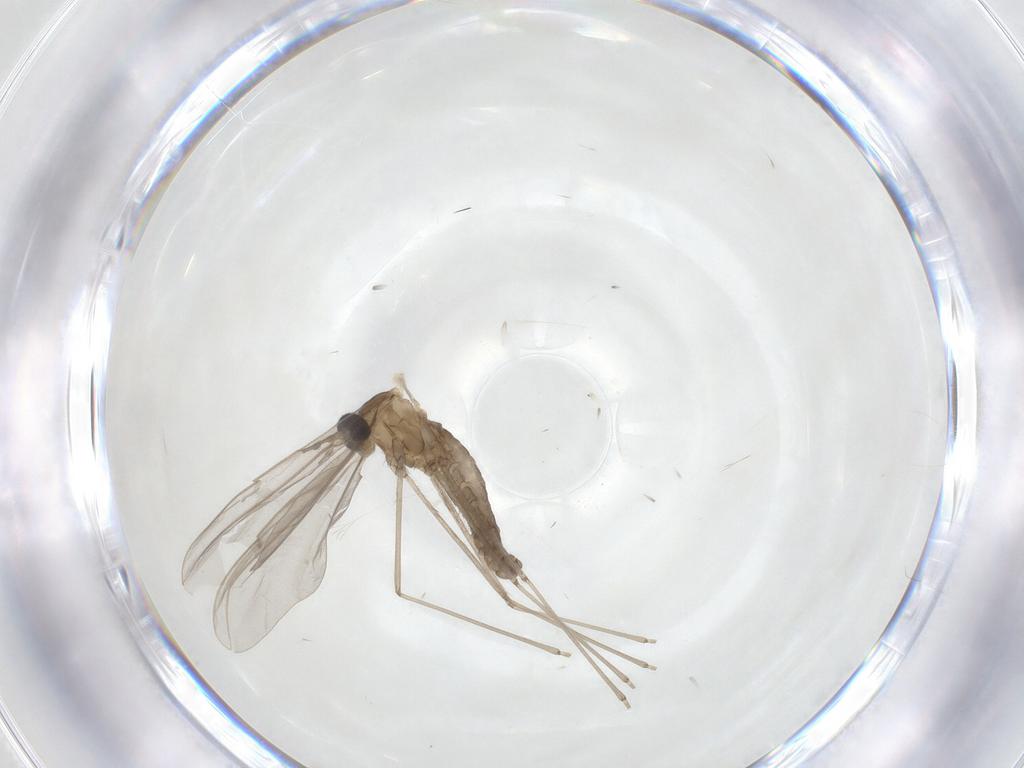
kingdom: Animalia
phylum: Arthropoda
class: Insecta
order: Diptera
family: Cecidomyiidae
